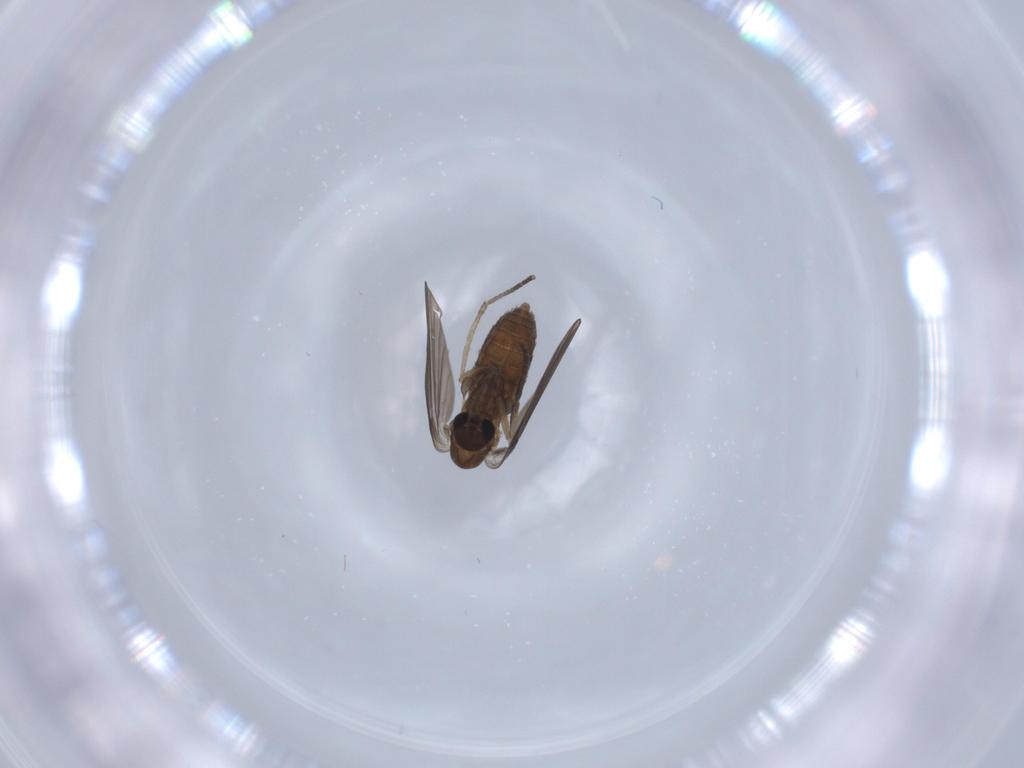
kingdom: Animalia
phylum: Arthropoda
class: Insecta
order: Diptera
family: Psychodidae
